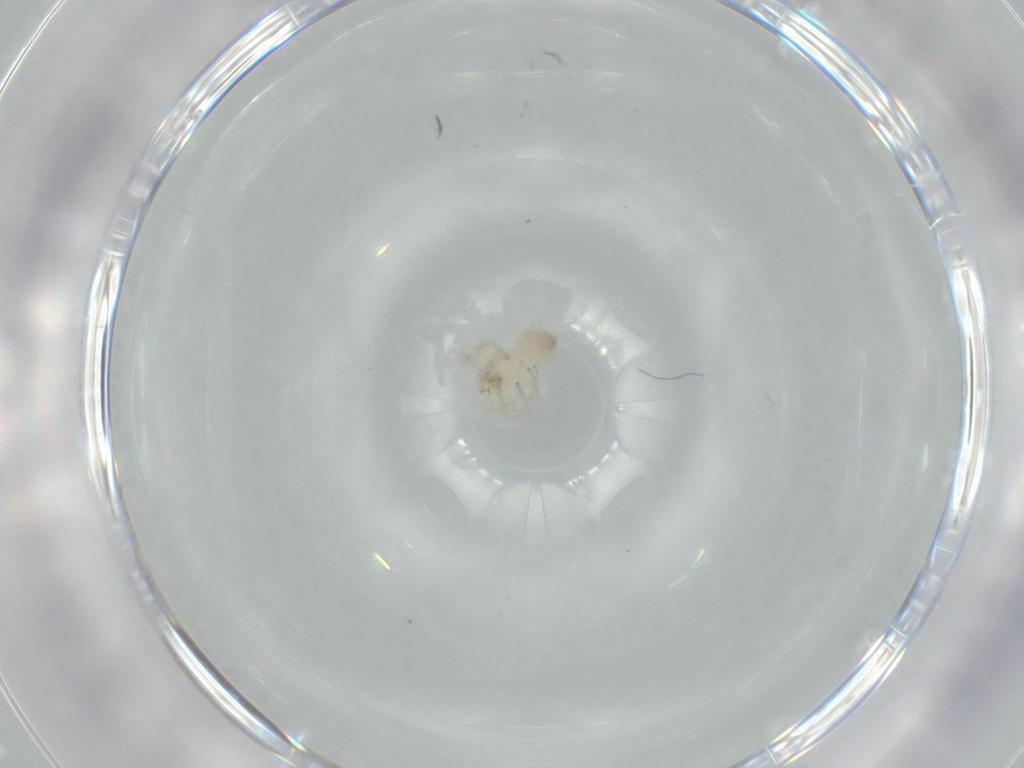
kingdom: Animalia
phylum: Arthropoda
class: Arachnida
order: Araneae
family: Oonopidae
